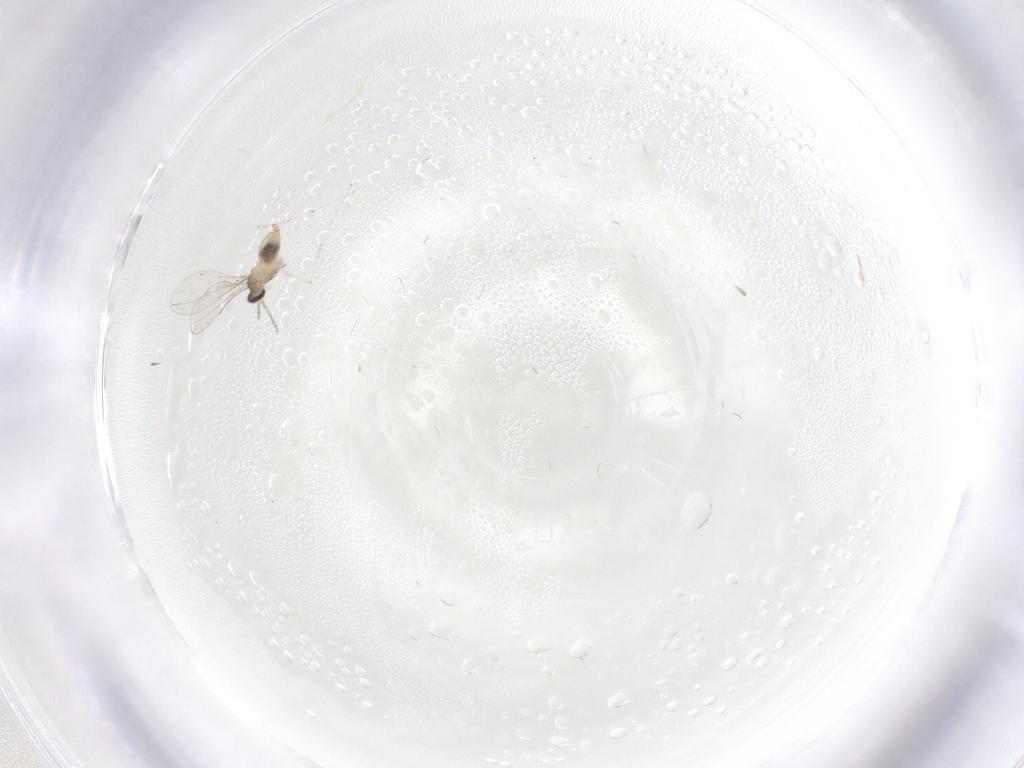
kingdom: Animalia
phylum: Arthropoda
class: Insecta
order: Diptera
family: Cecidomyiidae
